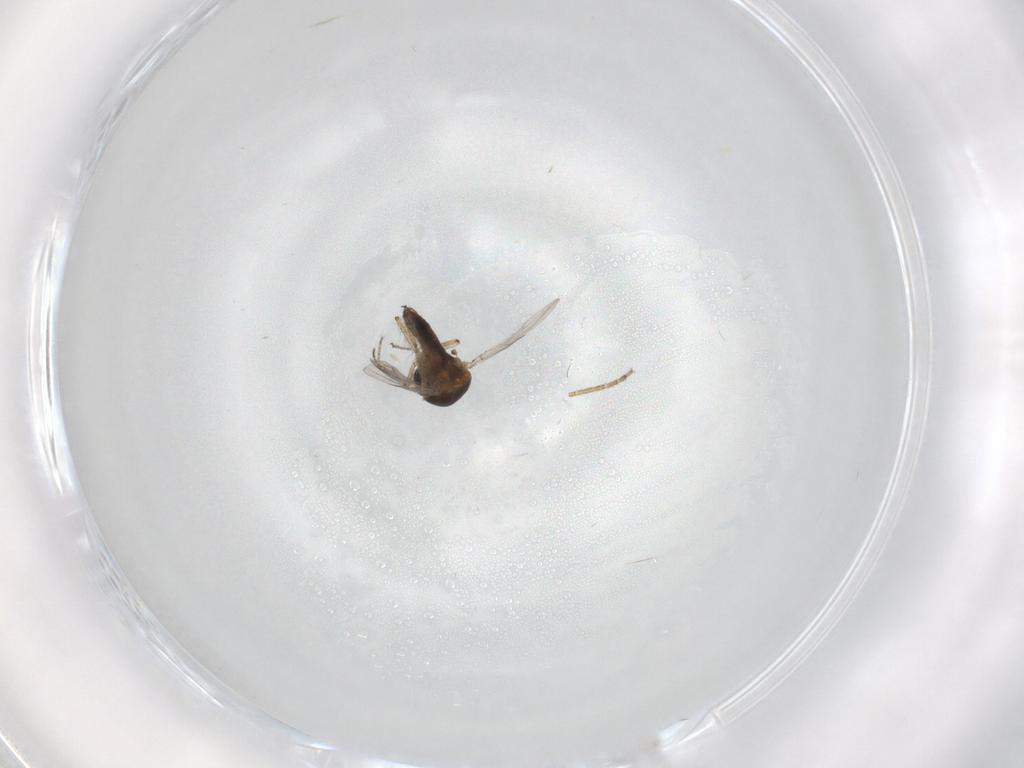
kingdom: Animalia
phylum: Arthropoda
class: Insecta
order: Diptera
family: Ceratopogonidae
